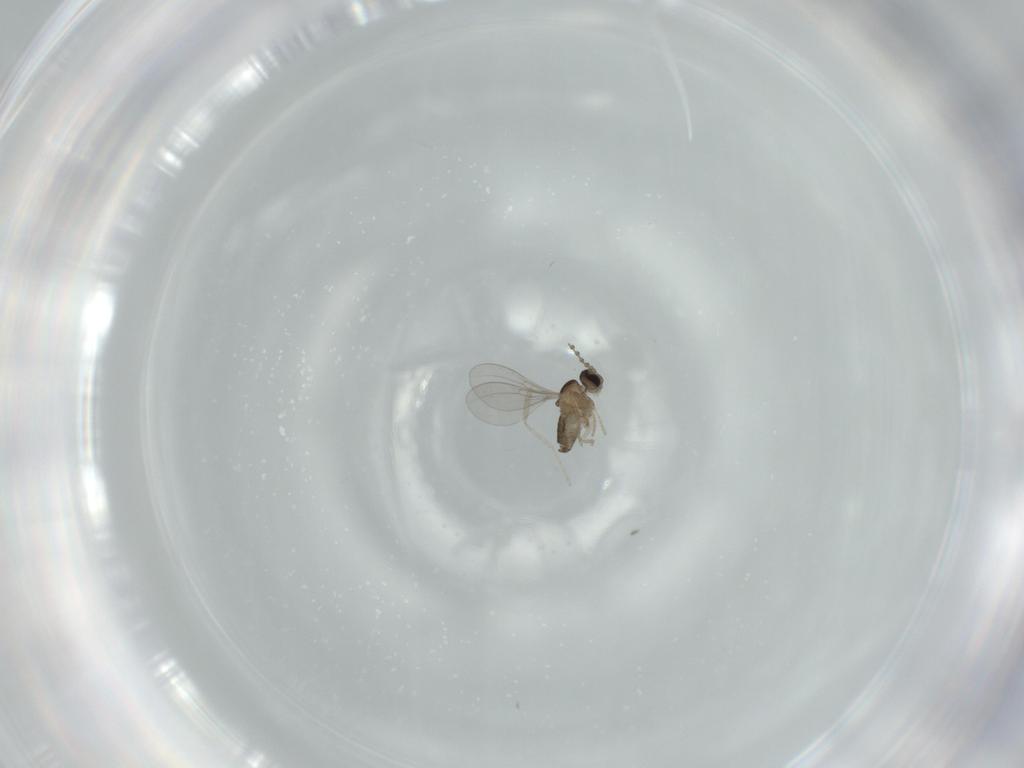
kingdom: Animalia
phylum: Arthropoda
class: Insecta
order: Diptera
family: Cecidomyiidae
